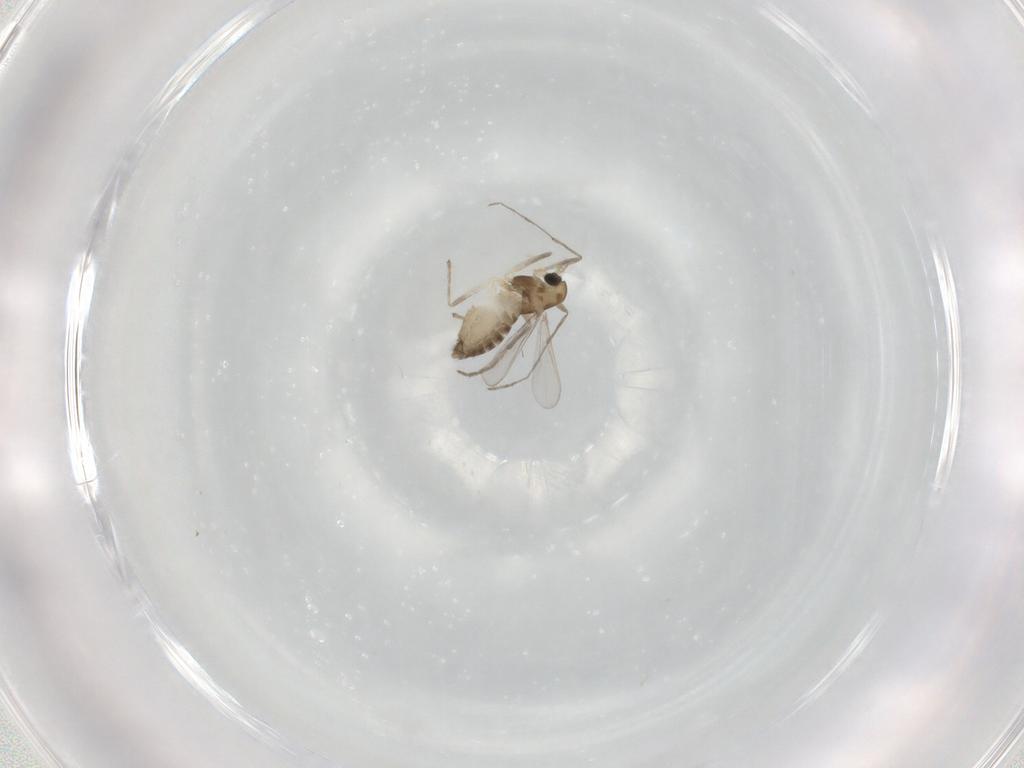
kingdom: Animalia
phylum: Arthropoda
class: Insecta
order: Diptera
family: Chironomidae
